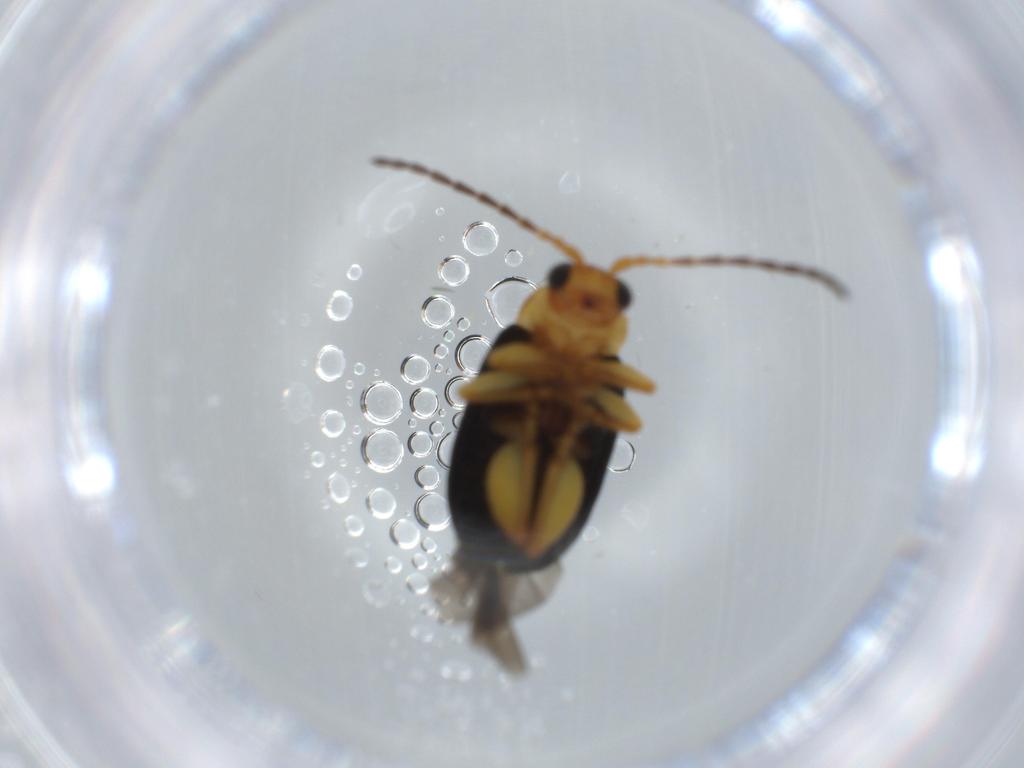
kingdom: Animalia
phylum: Arthropoda
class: Insecta
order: Coleoptera
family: Chrysomelidae
